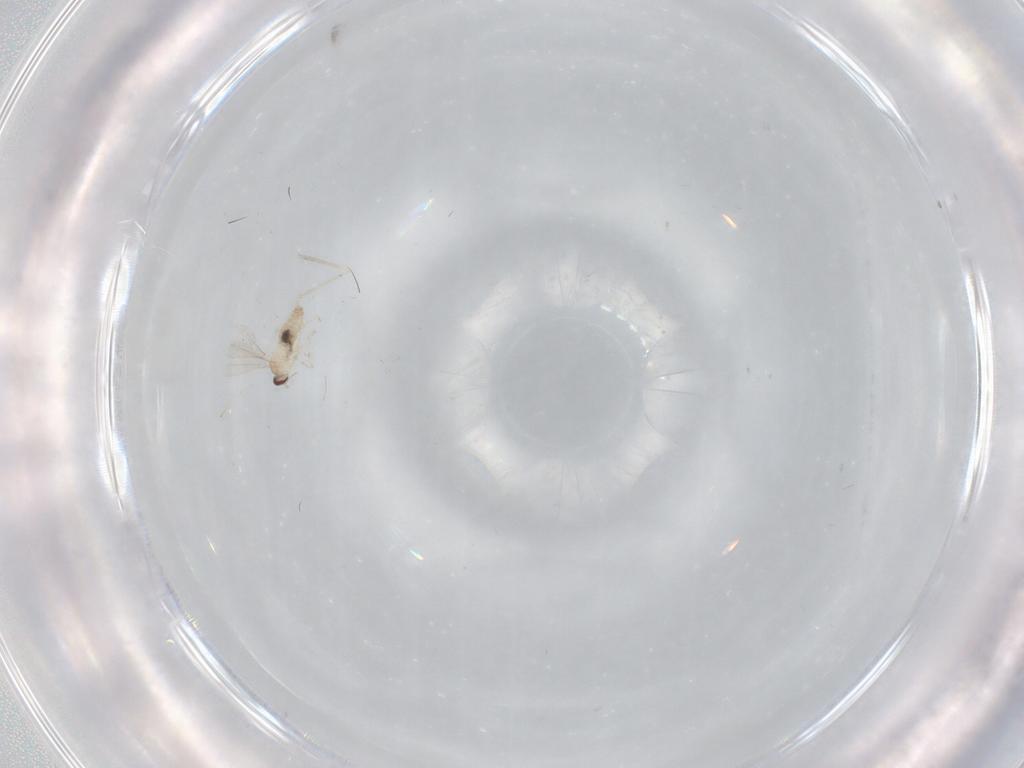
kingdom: Animalia
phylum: Arthropoda
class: Insecta
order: Diptera
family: Cecidomyiidae
